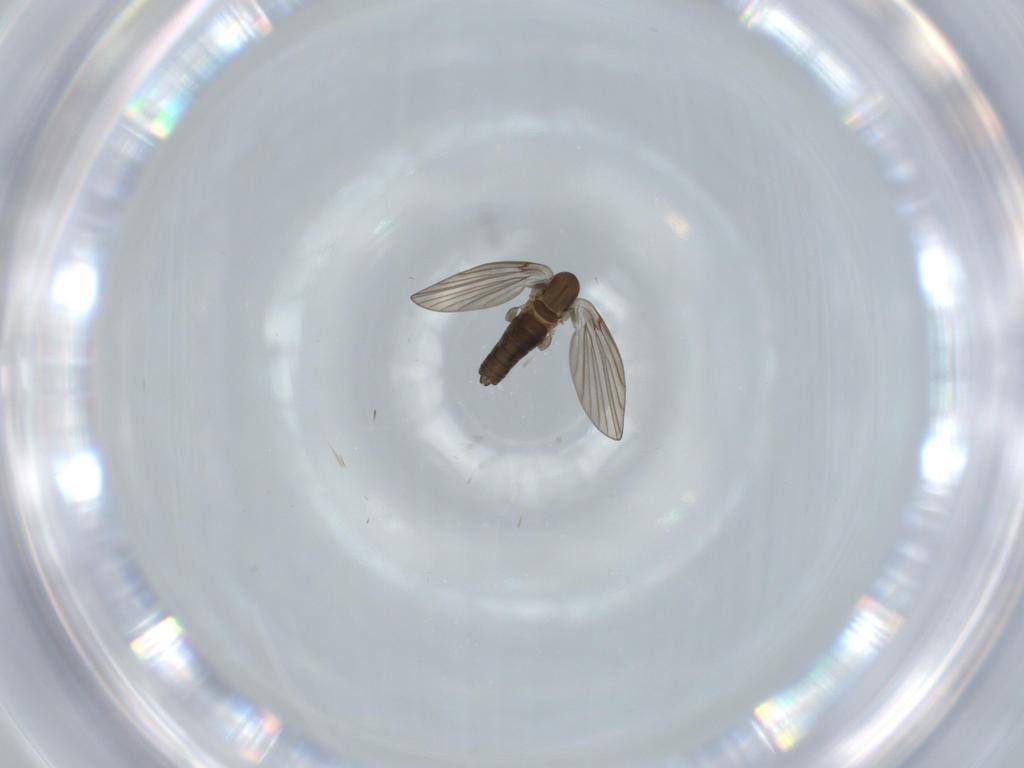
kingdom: Animalia
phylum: Arthropoda
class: Insecta
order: Diptera
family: Psychodidae
